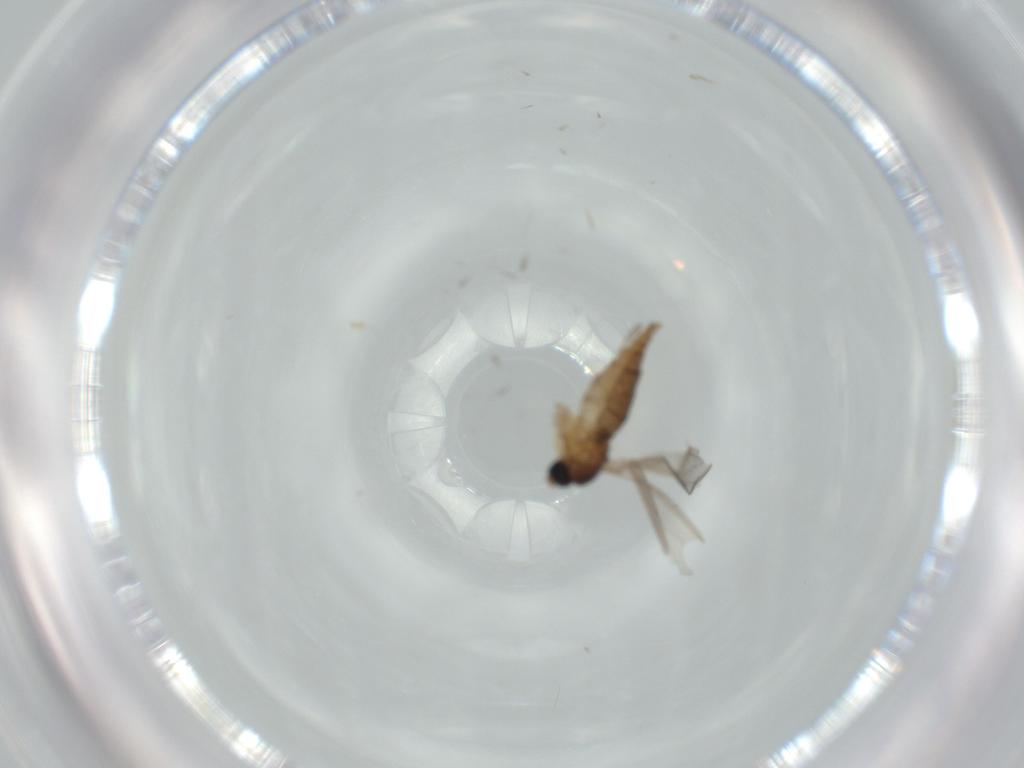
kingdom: Animalia
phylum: Arthropoda
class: Insecta
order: Diptera
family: Sciaridae
